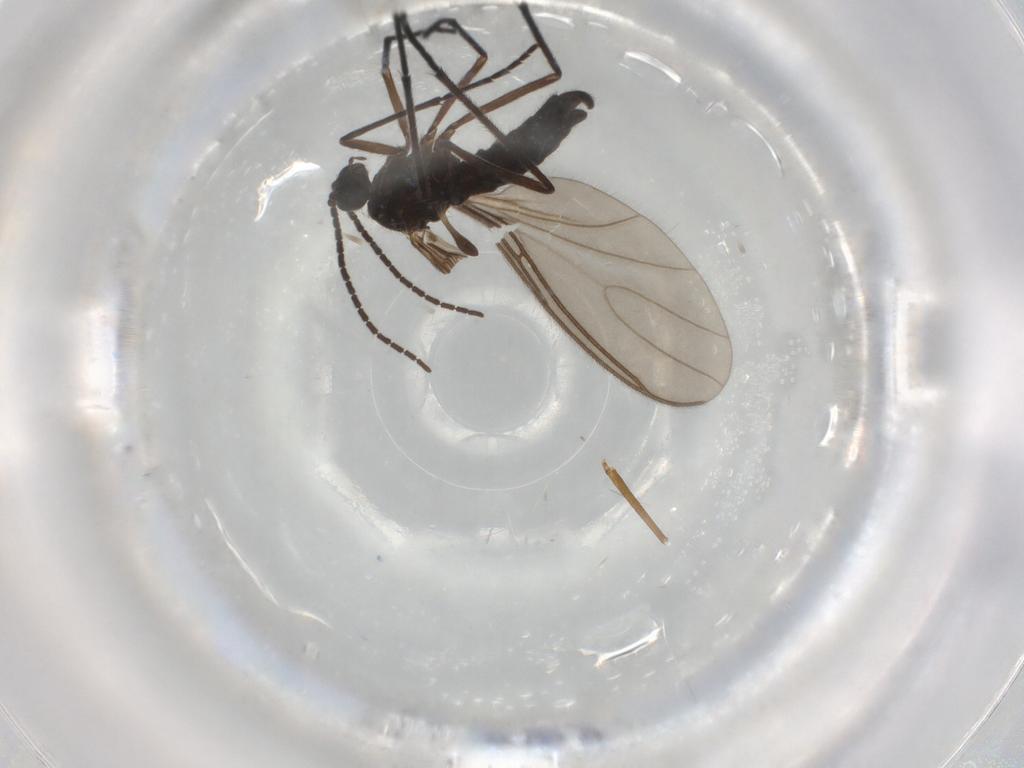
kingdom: Animalia
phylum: Arthropoda
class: Insecta
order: Diptera
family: Sciaridae
